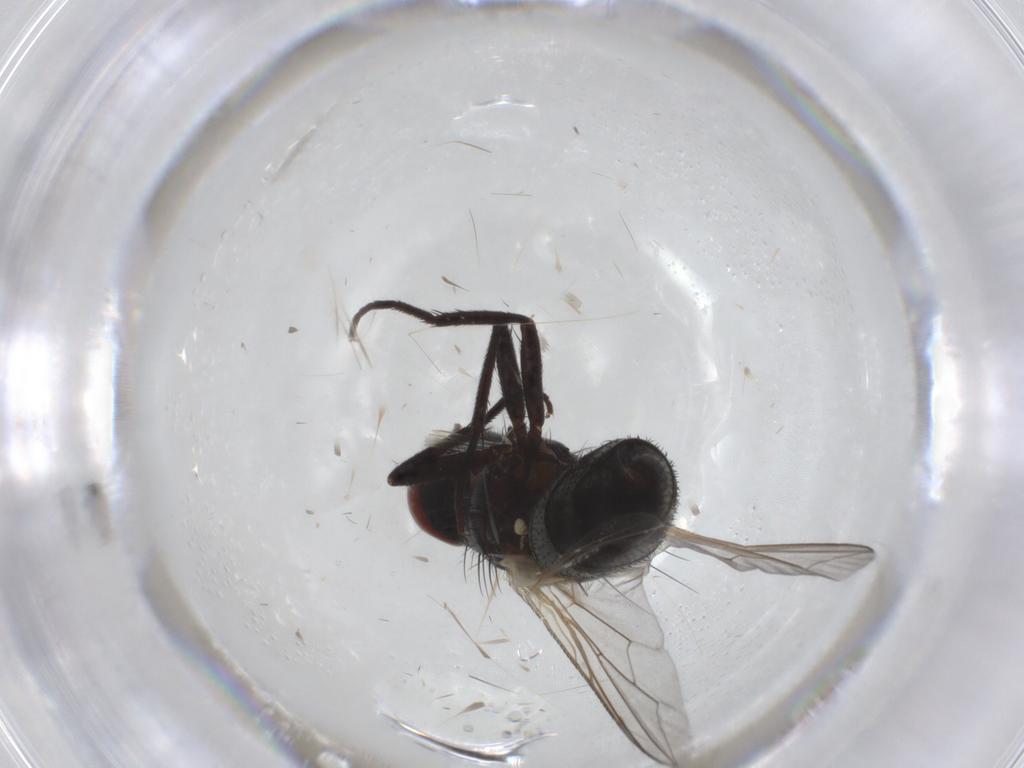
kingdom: Animalia
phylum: Arthropoda
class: Insecta
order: Diptera
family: Sarcophagidae
